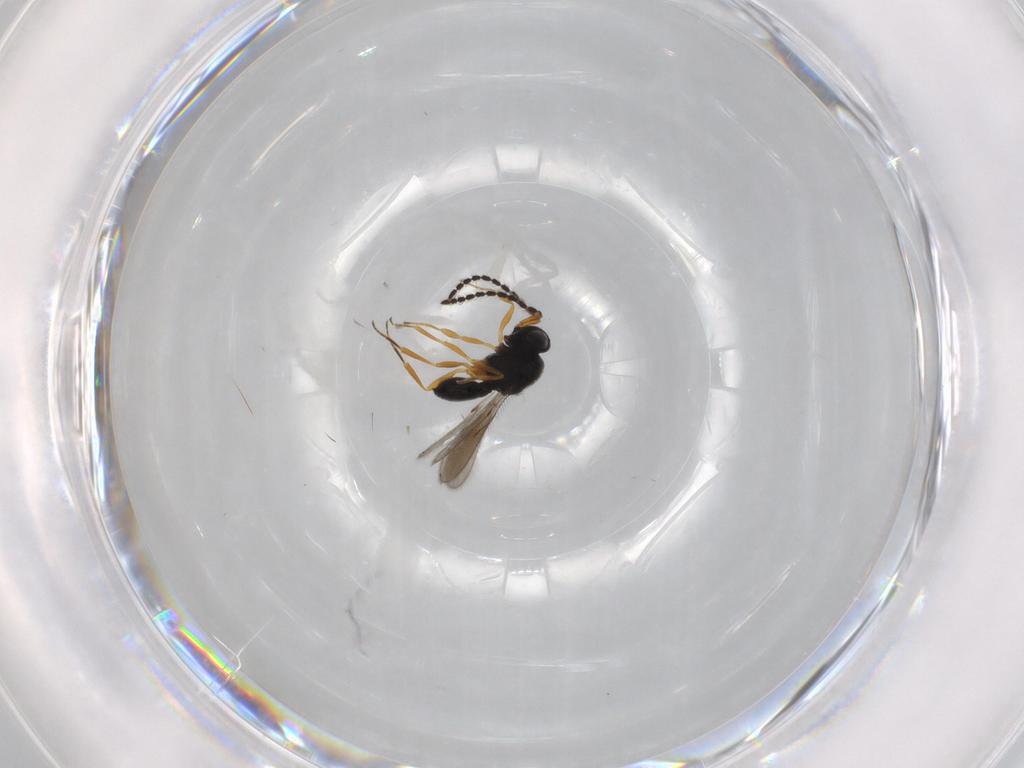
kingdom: Animalia
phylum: Arthropoda
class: Insecta
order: Hymenoptera
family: Scelionidae
